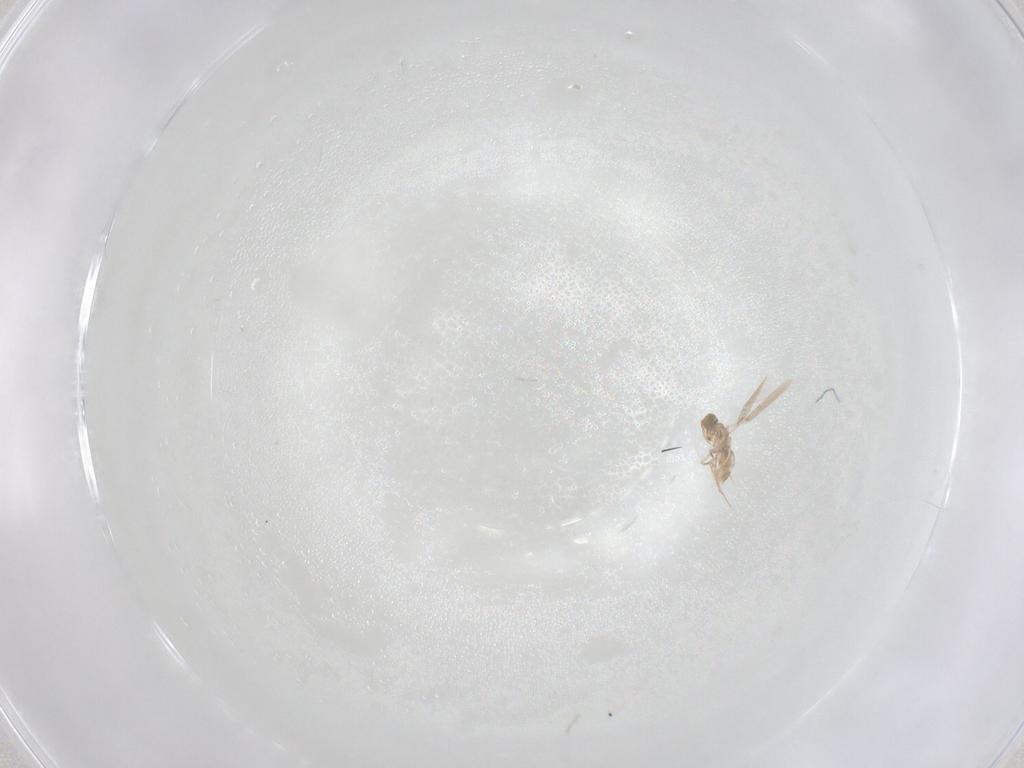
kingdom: Animalia
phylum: Arthropoda
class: Insecta
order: Hymenoptera
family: Aphelinidae
